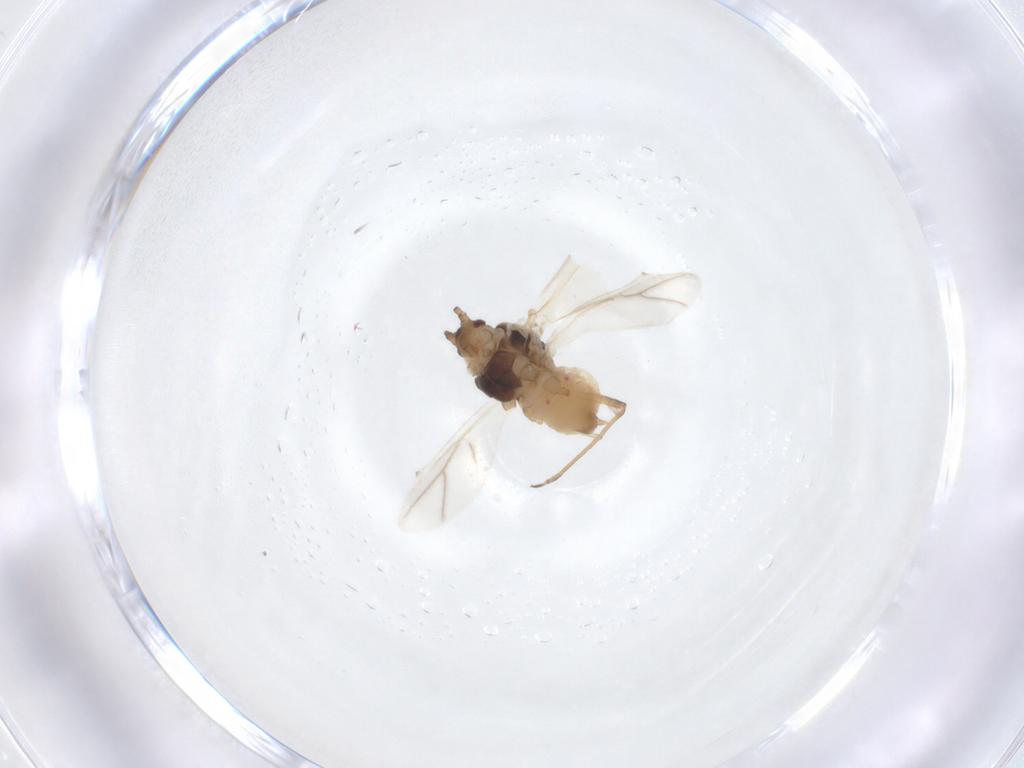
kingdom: Animalia
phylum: Arthropoda
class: Insecta
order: Hemiptera
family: Aphididae
